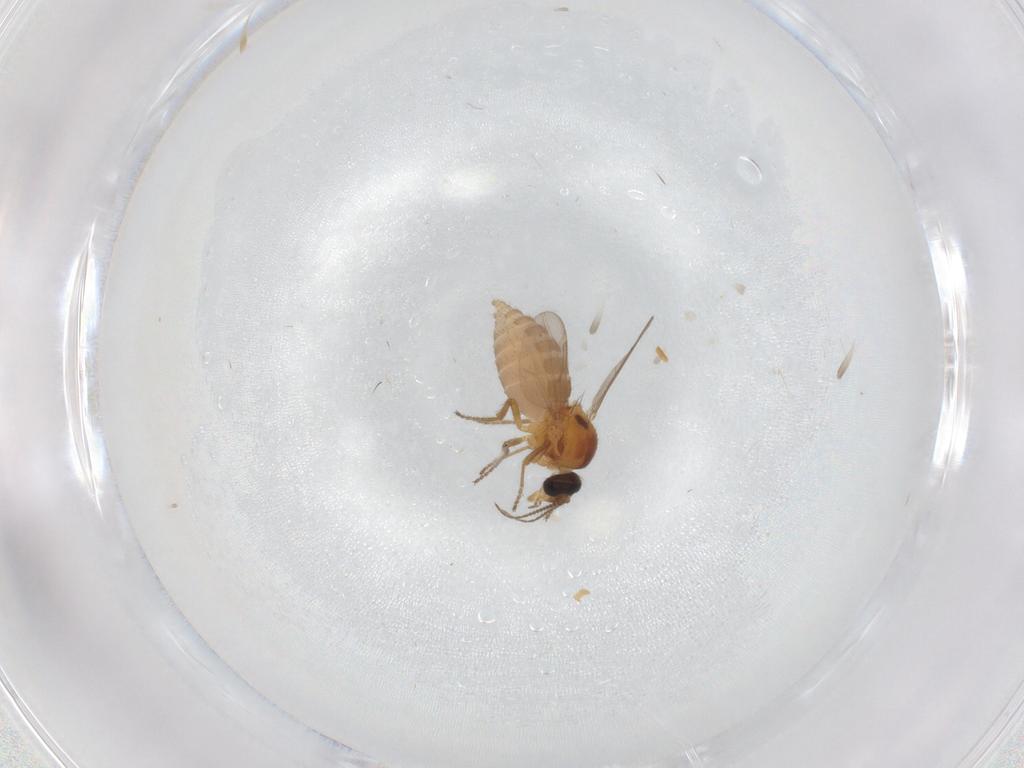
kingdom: Animalia
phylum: Arthropoda
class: Insecta
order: Diptera
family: Ceratopogonidae
